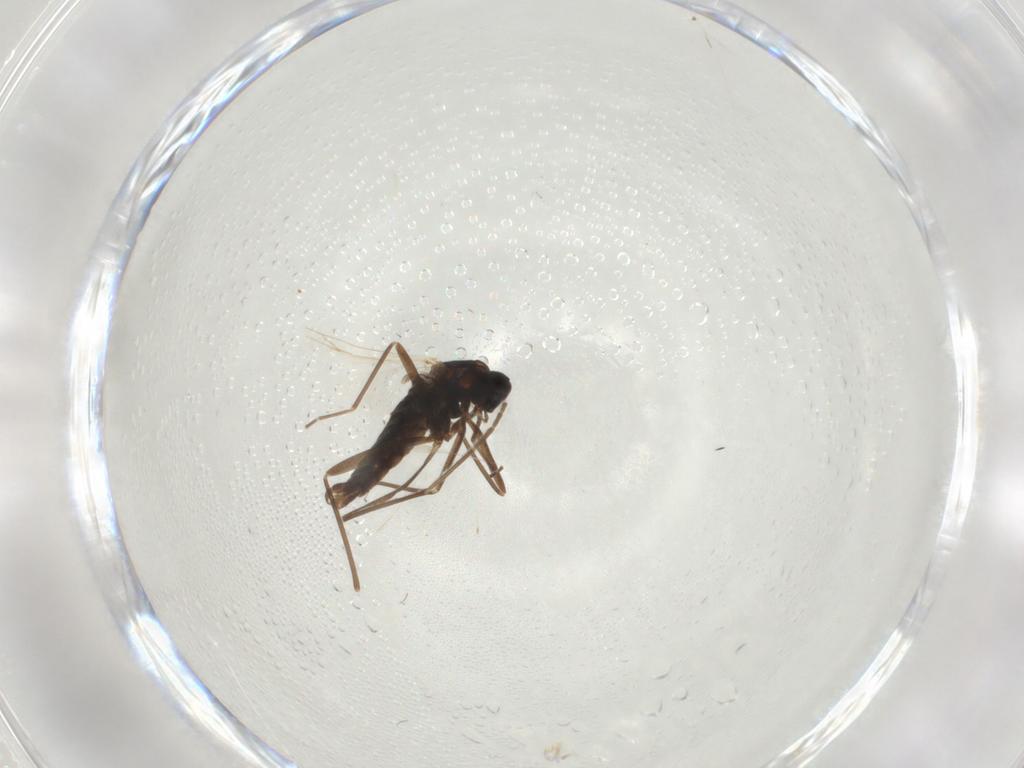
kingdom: Animalia
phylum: Arthropoda
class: Insecta
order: Diptera
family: Heleomyzidae
